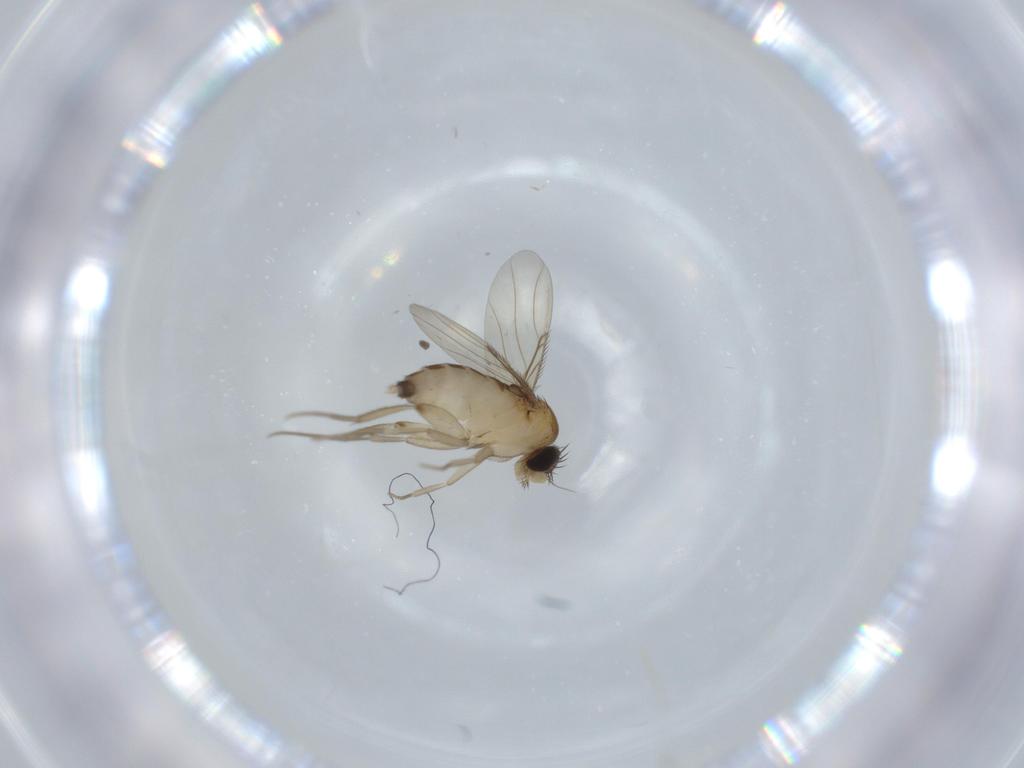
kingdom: Animalia
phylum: Arthropoda
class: Insecta
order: Diptera
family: Phoridae
